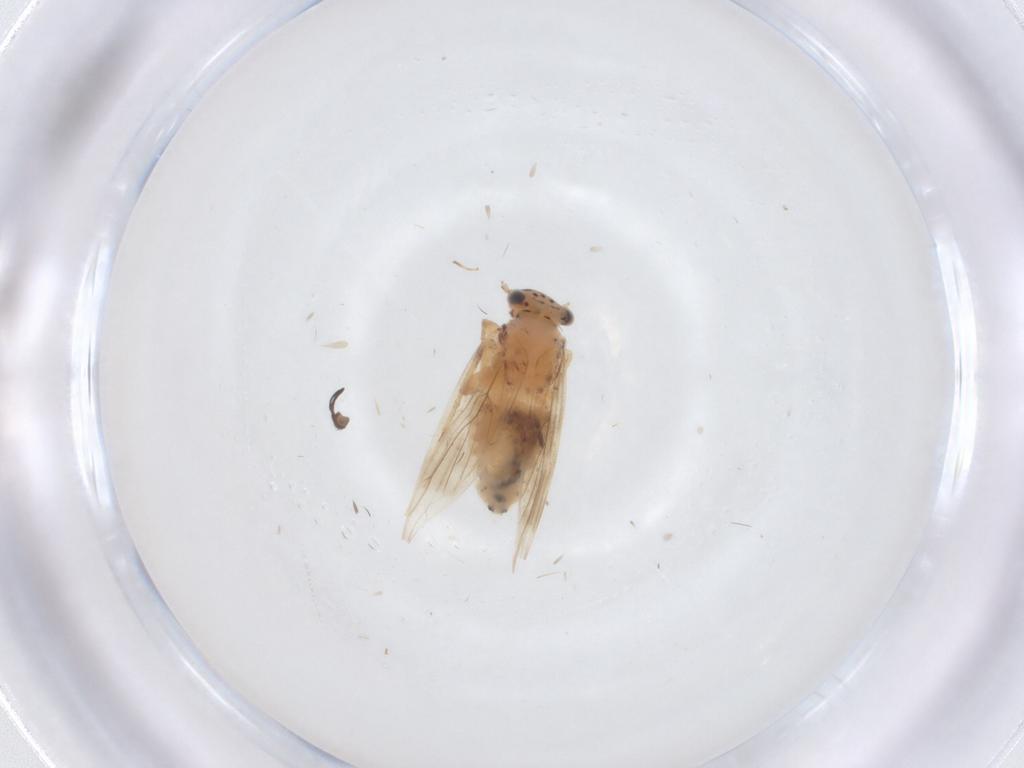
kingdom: Animalia
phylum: Arthropoda
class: Insecta
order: Psocodea
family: Lepidopsocidae
